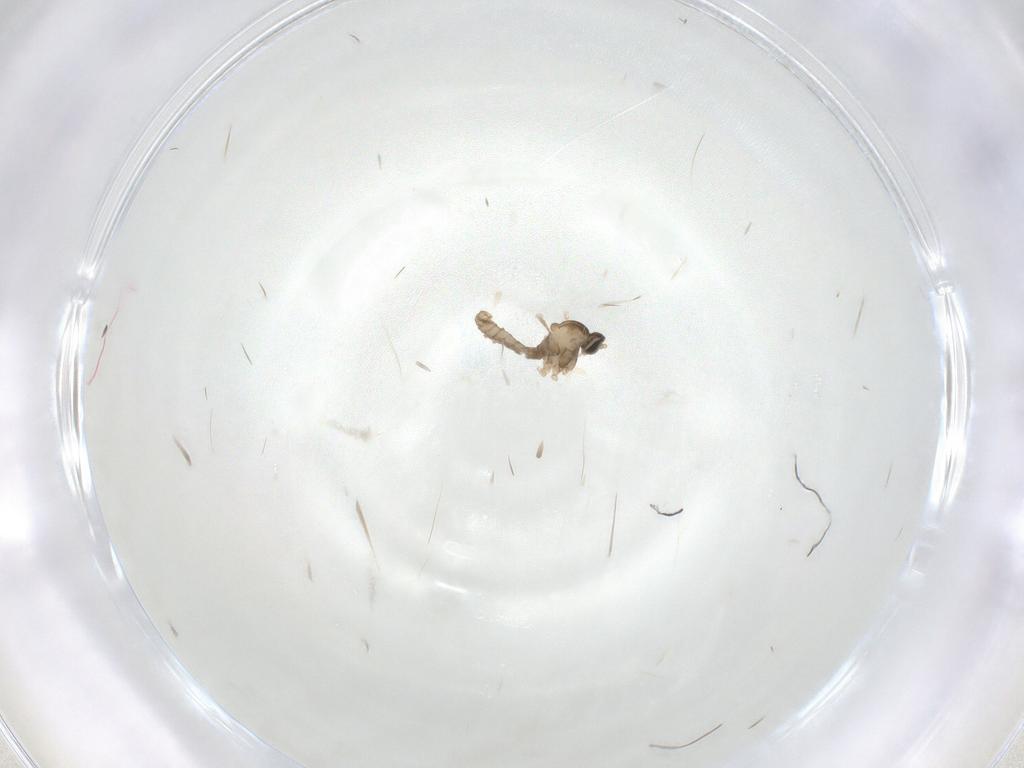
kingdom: Animalia
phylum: Arthropoda
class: Insecta
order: Diptera
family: Cecidomyiidae
